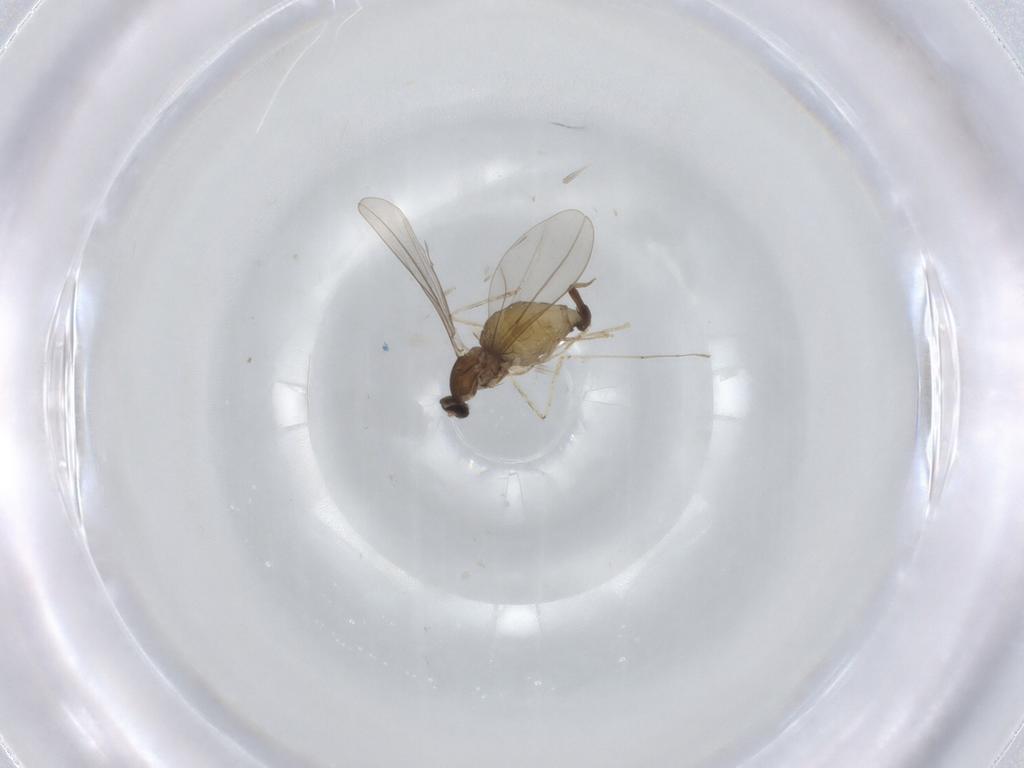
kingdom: Animalia
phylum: Arthropoda
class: Insecta
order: Diptera
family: Cecidomyiidae
